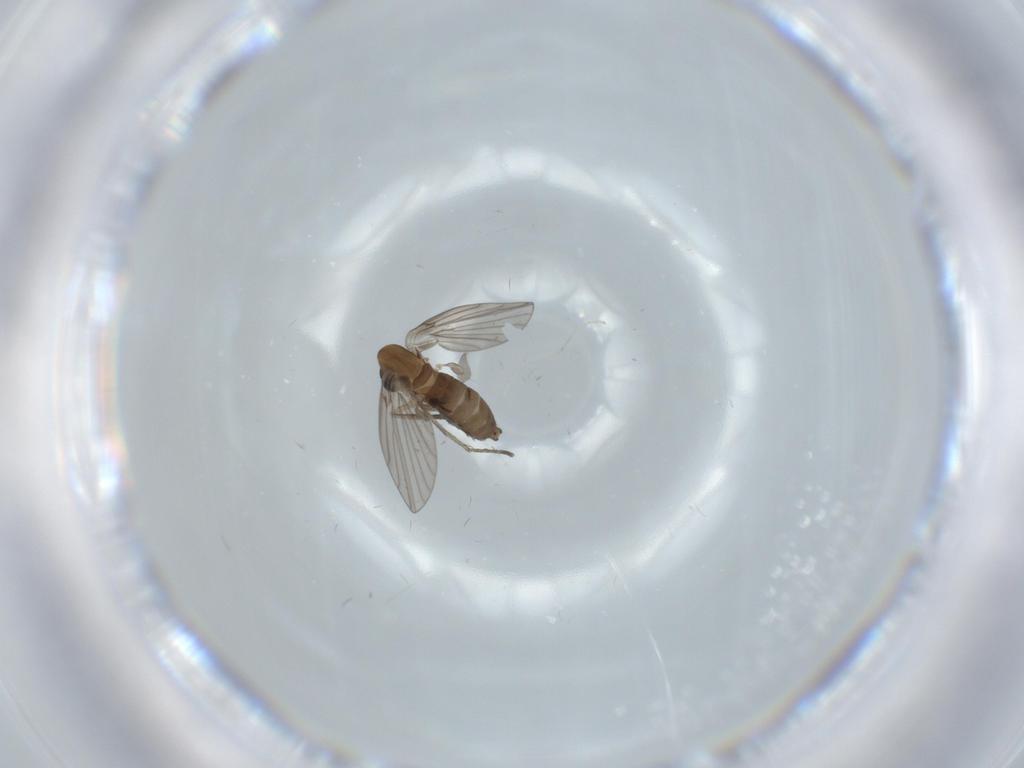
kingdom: Animalia
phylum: Arthropoda
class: Insecta
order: Diptera
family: Psychodidae
